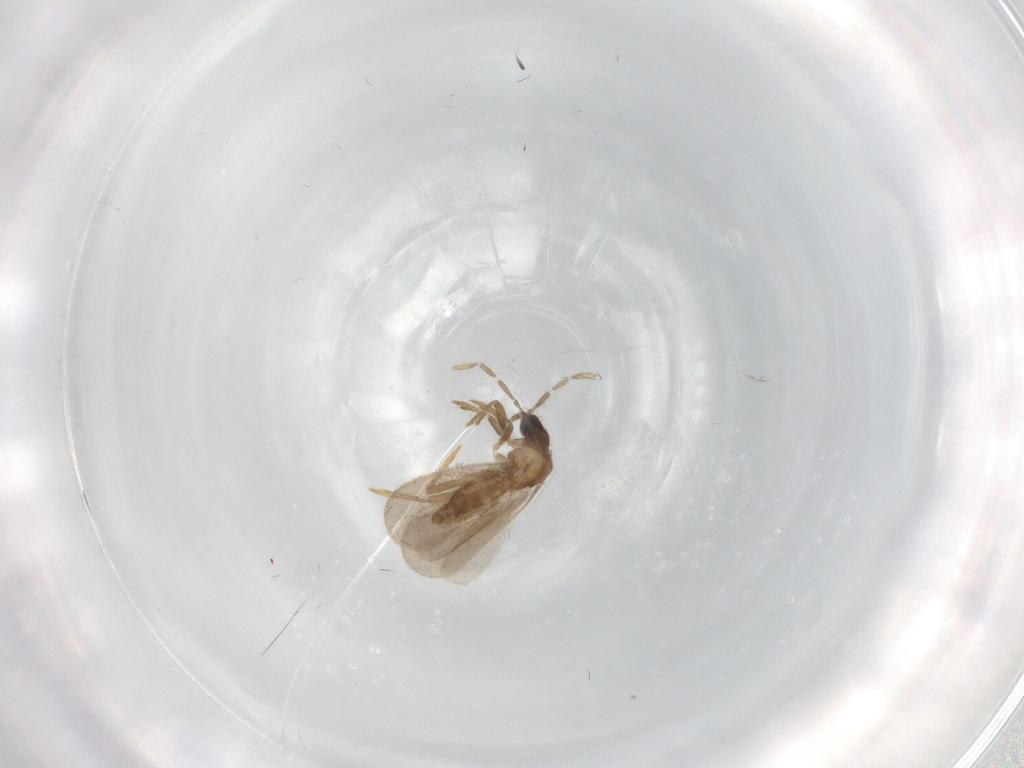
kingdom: Animalia
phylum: Arthropoda
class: Insecta
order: Hemiptera
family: Enicocephalidae
